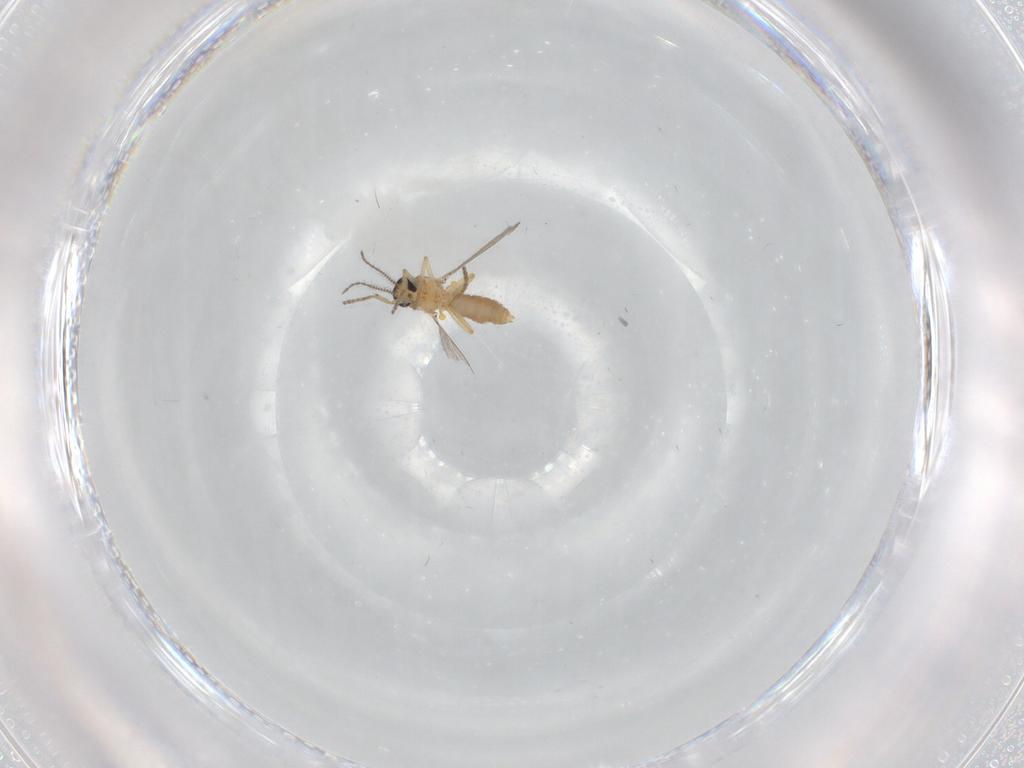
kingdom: Animalia
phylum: Arthropoda
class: Insecta
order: Diptera
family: Ceratopogonidae
